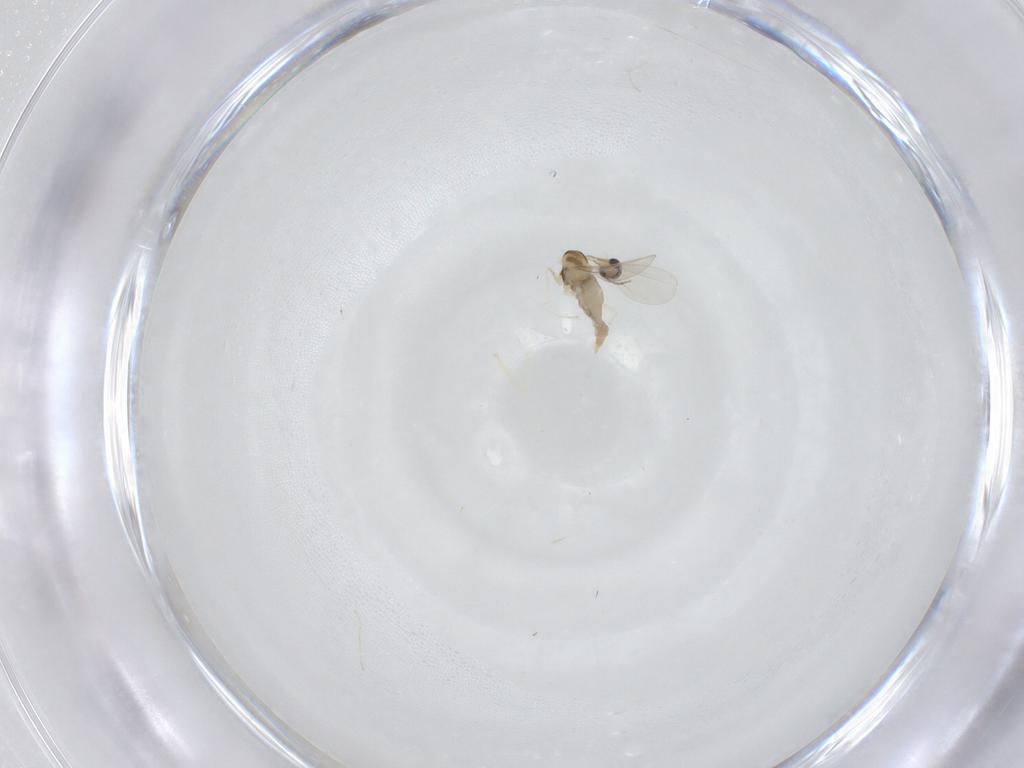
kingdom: Animalia
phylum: Arthropoda
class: Insecta
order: Diptera
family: Cecidomyiidae
